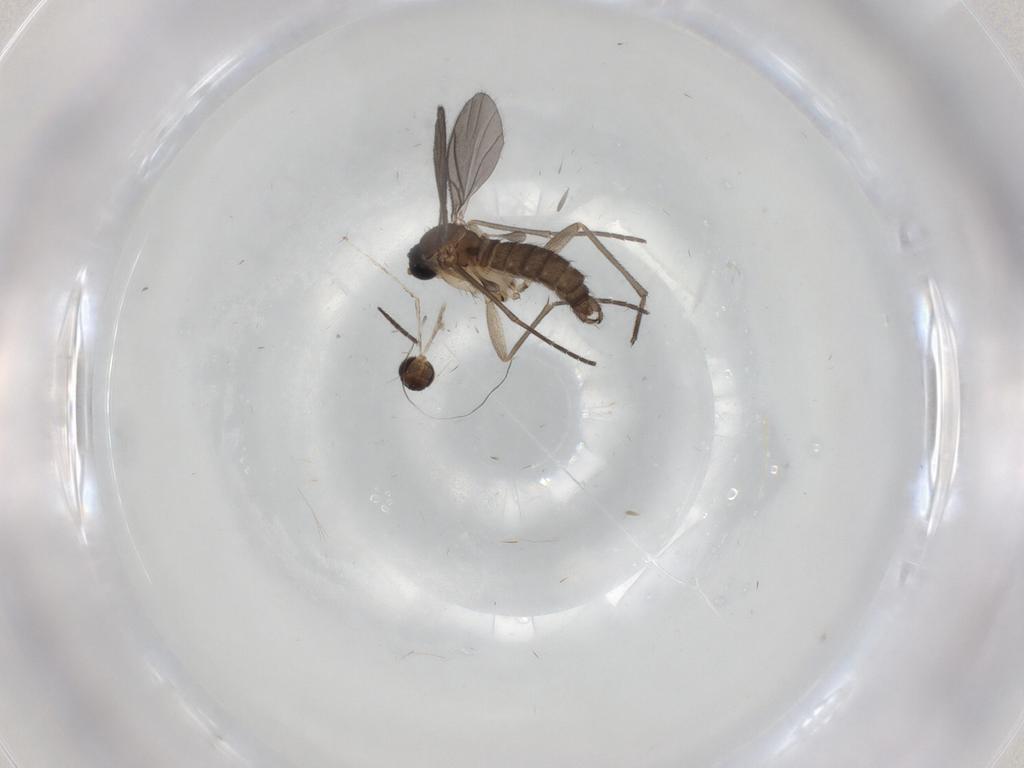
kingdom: Animalia
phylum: Arthropoda
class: Insecta
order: Diptera
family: Sciaridae
